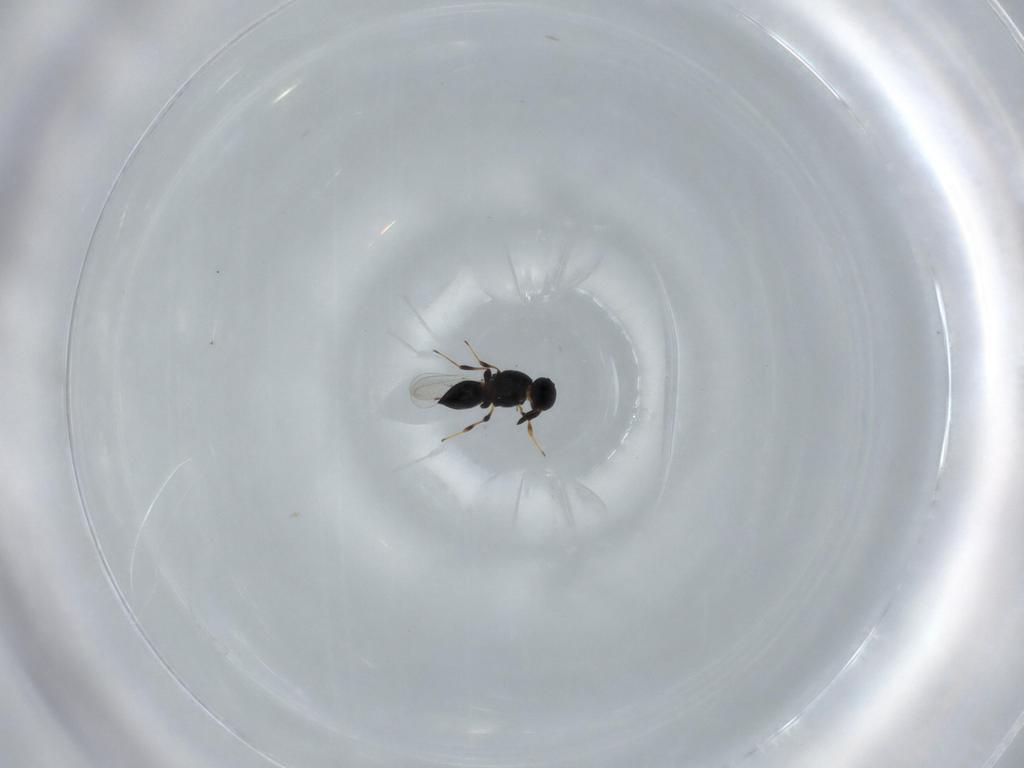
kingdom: Animalia
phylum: Arthropoda
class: Insecta
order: Hymenoptera
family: Platygastridae
